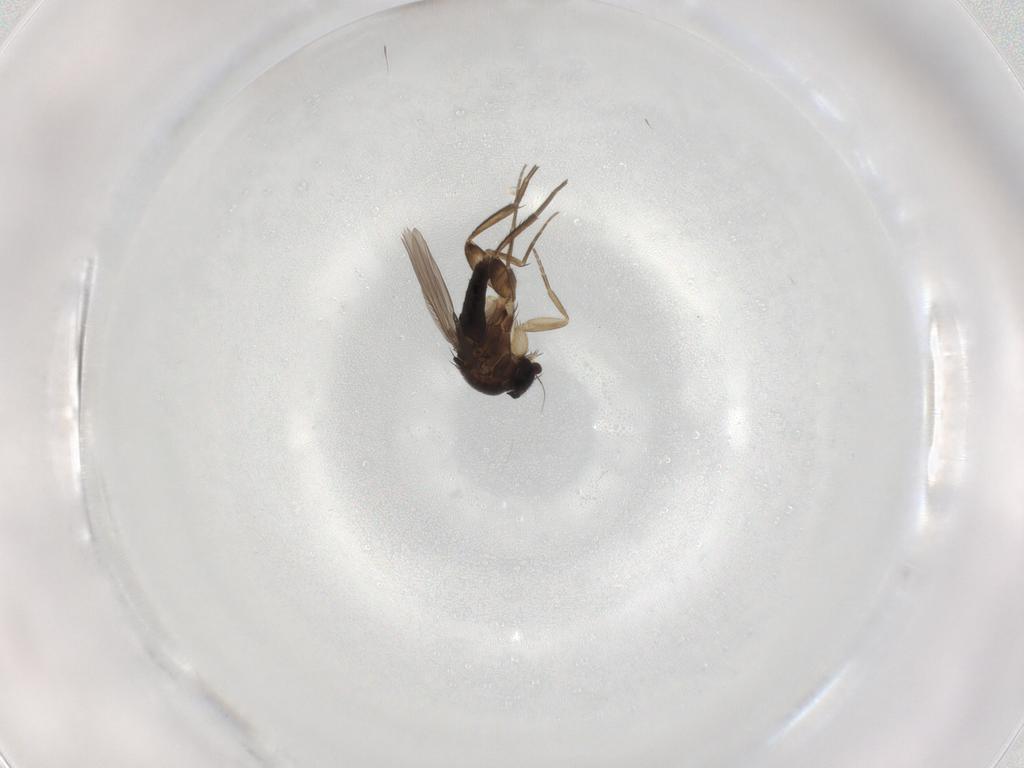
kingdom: Animalia
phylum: Arthropoda
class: Insecta
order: Diptera
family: Phoridae
